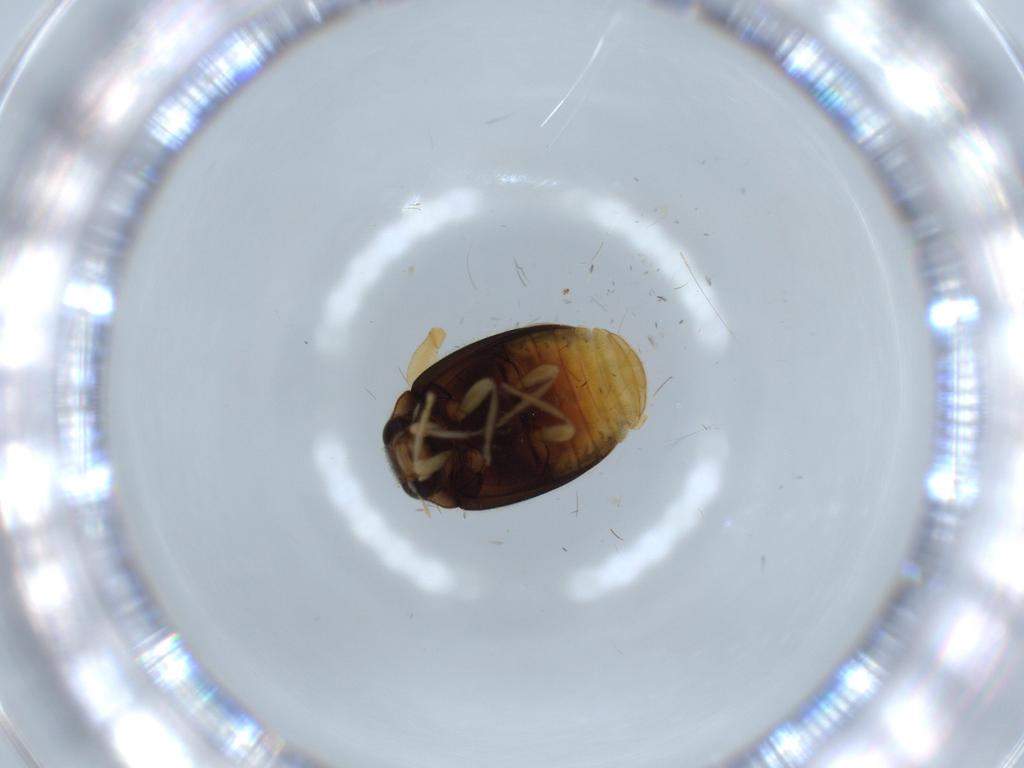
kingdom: Animalia
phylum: Arthropoda
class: Insecta
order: Coleoptera
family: Coccinellidae
